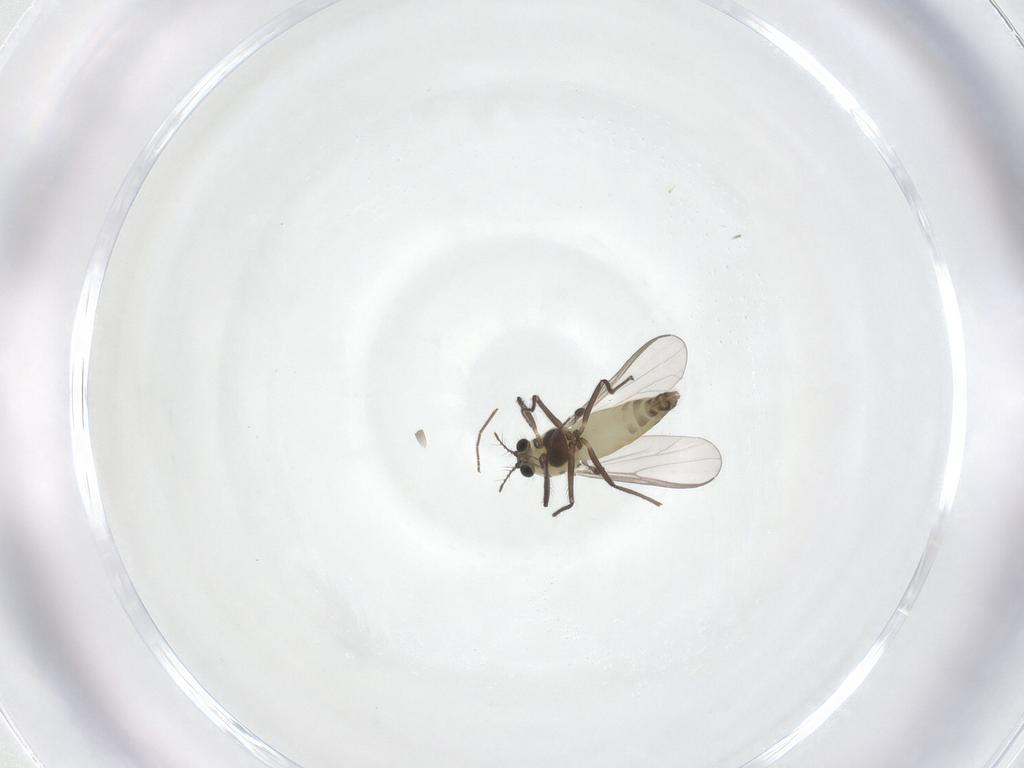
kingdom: Animalia
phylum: Arthropoda
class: Insecta
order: Diptera
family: Chironomidae
